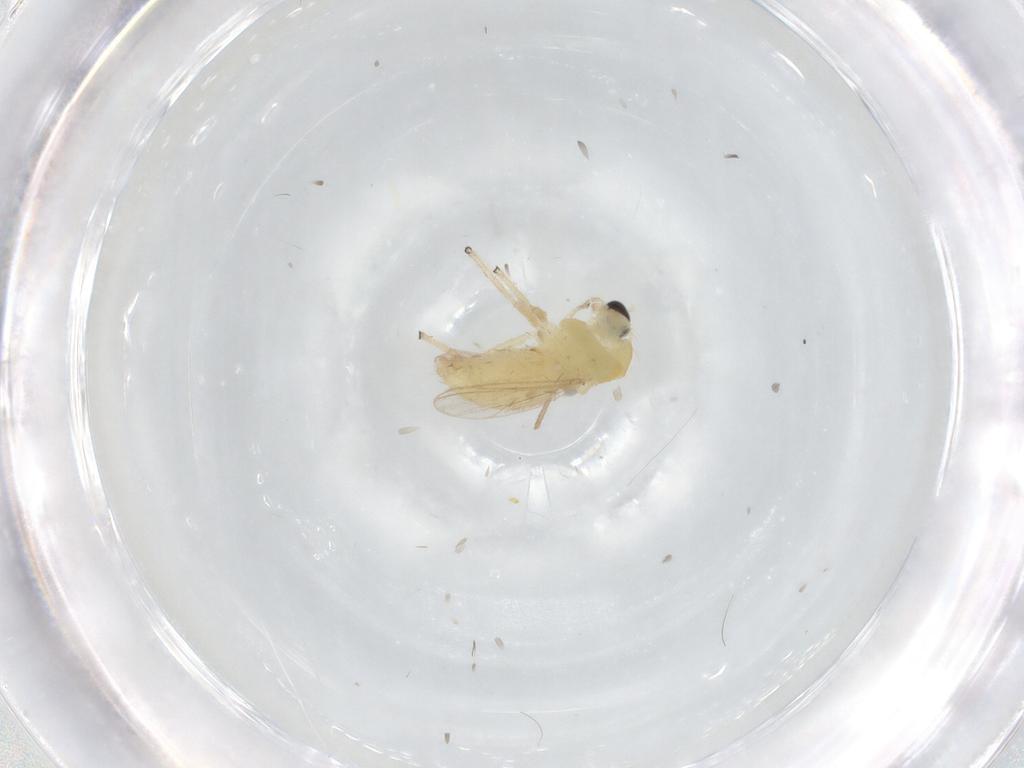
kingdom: Animalia
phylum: Arthropoda
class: Insecta
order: Diptera
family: Chironomidae
